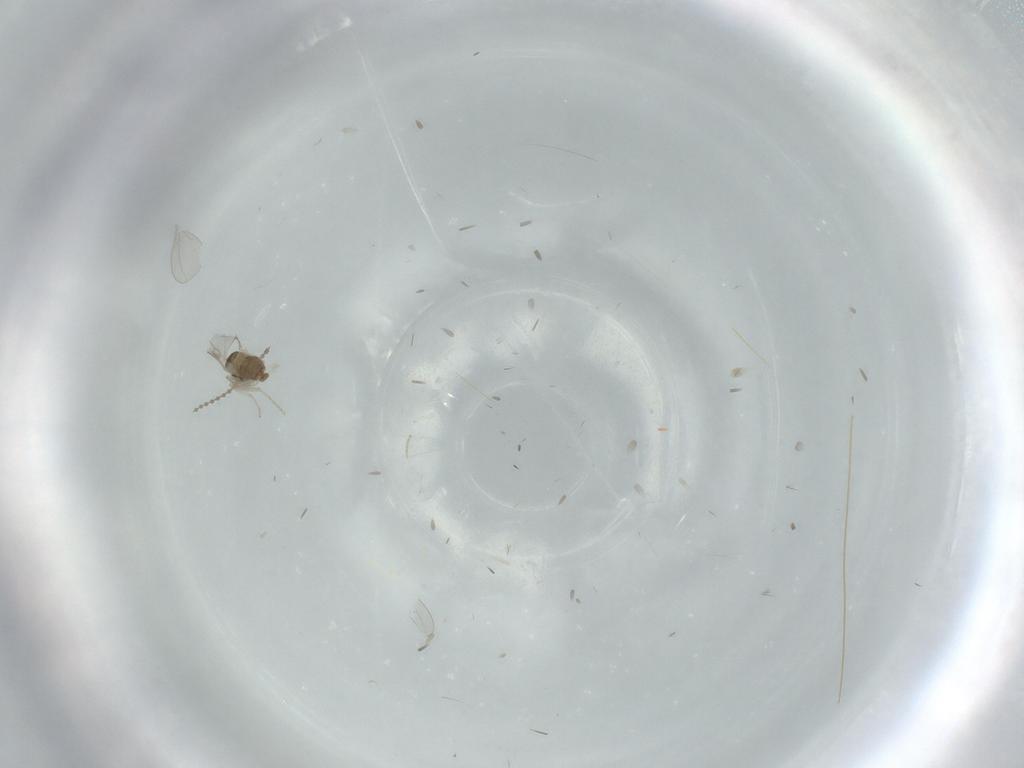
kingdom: Animalia
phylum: Arthropoda
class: Insecta
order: Diptera
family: Cecidomyiidae
